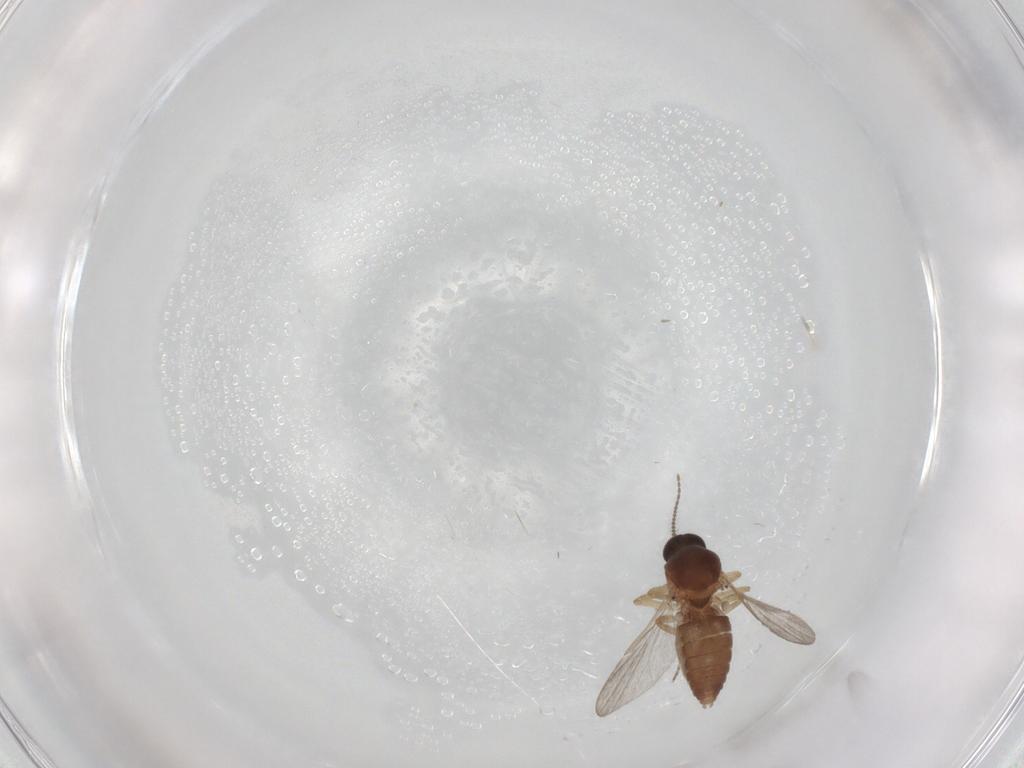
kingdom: Animalia
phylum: Arthropoda
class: Insecta
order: Diptera
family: Ceratopogonidae
